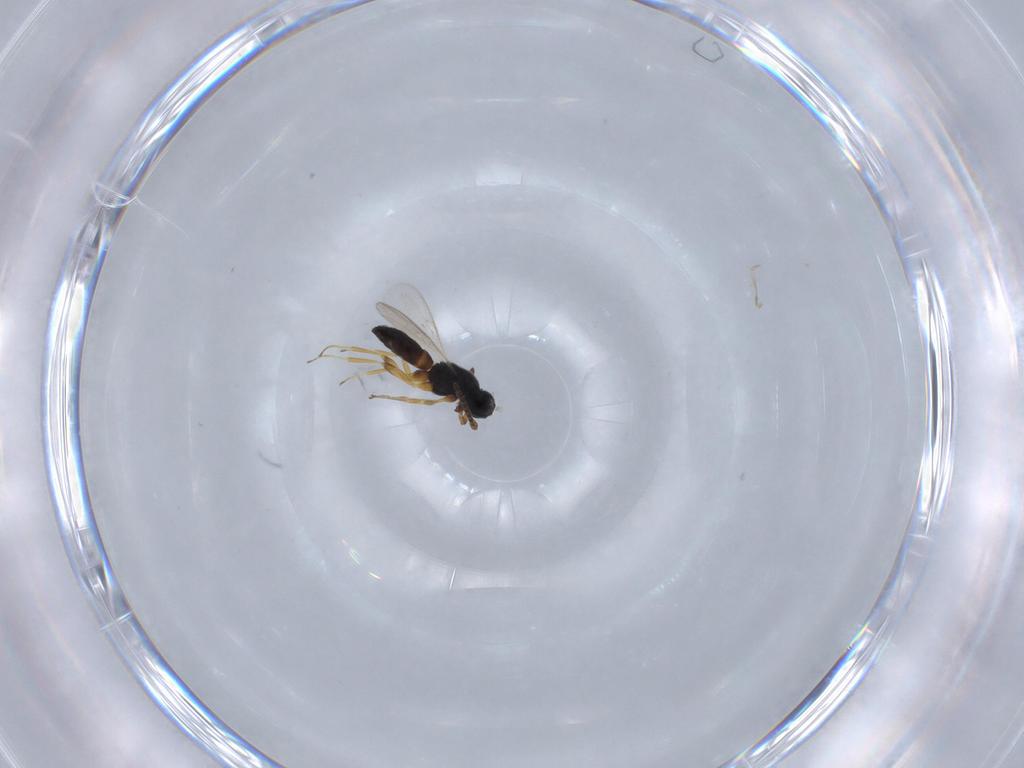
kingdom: Animalia
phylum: Arthropoda
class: Insecta
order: Hymenoptera
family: Scelionidae
